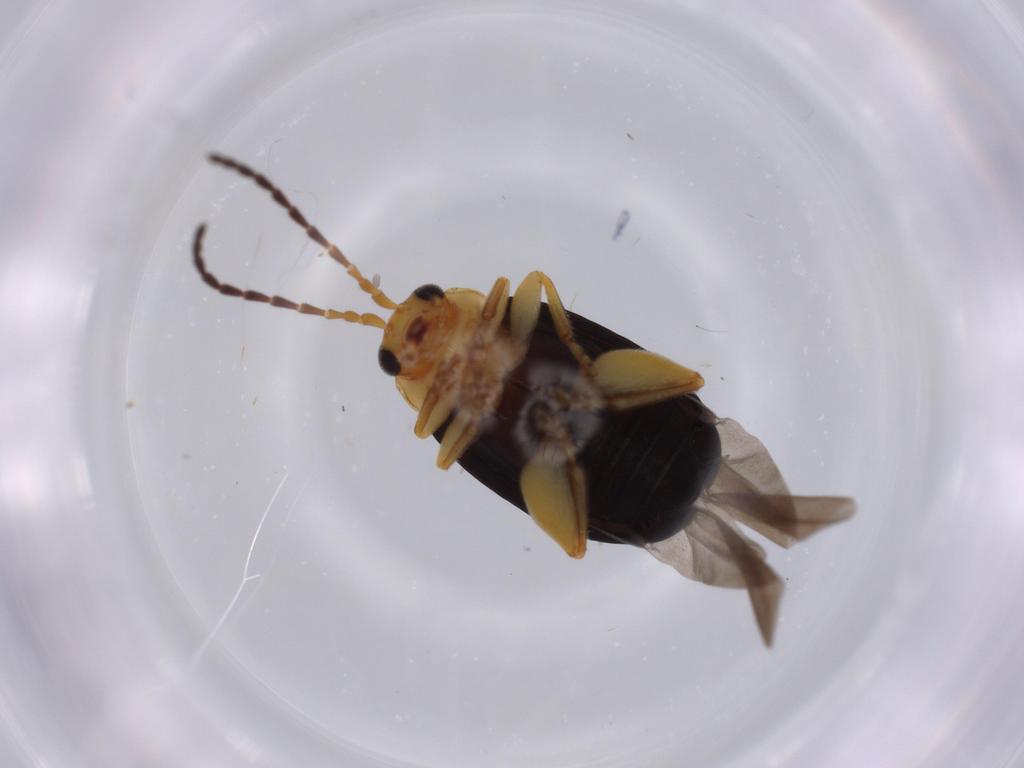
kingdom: Animalia
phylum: Arthropoda
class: Insecta
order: Coleoptera
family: Chrysomelidae
